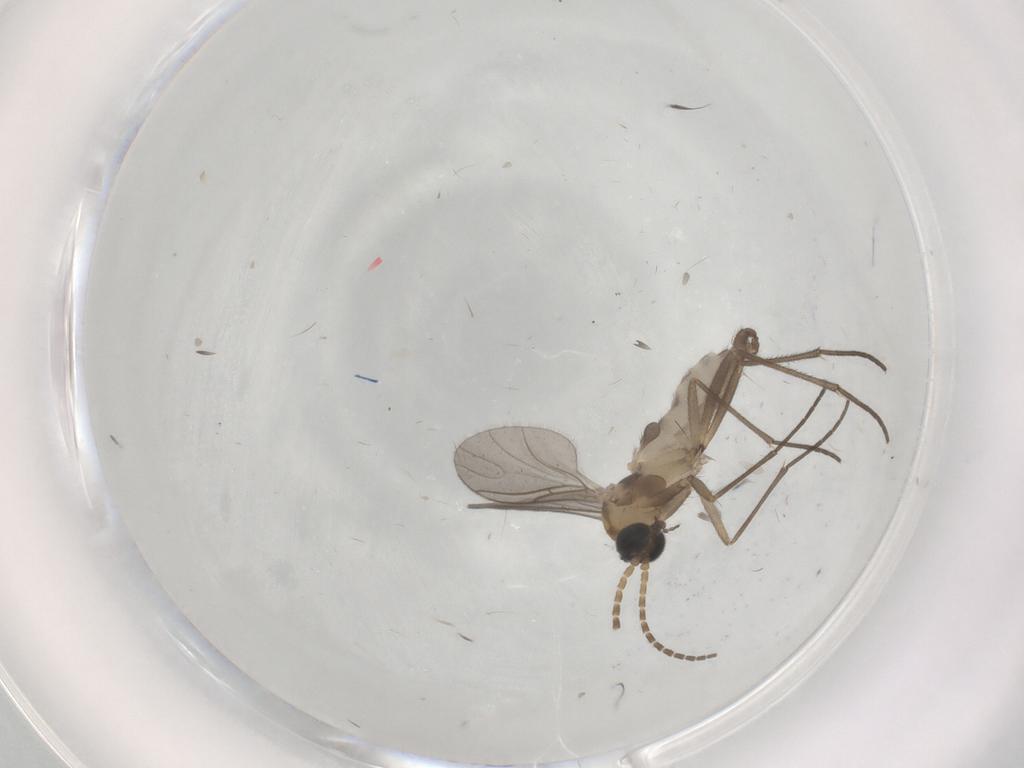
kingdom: Animalia
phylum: Arthropoda
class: Insecta
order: Diptera
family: Sciaridae
